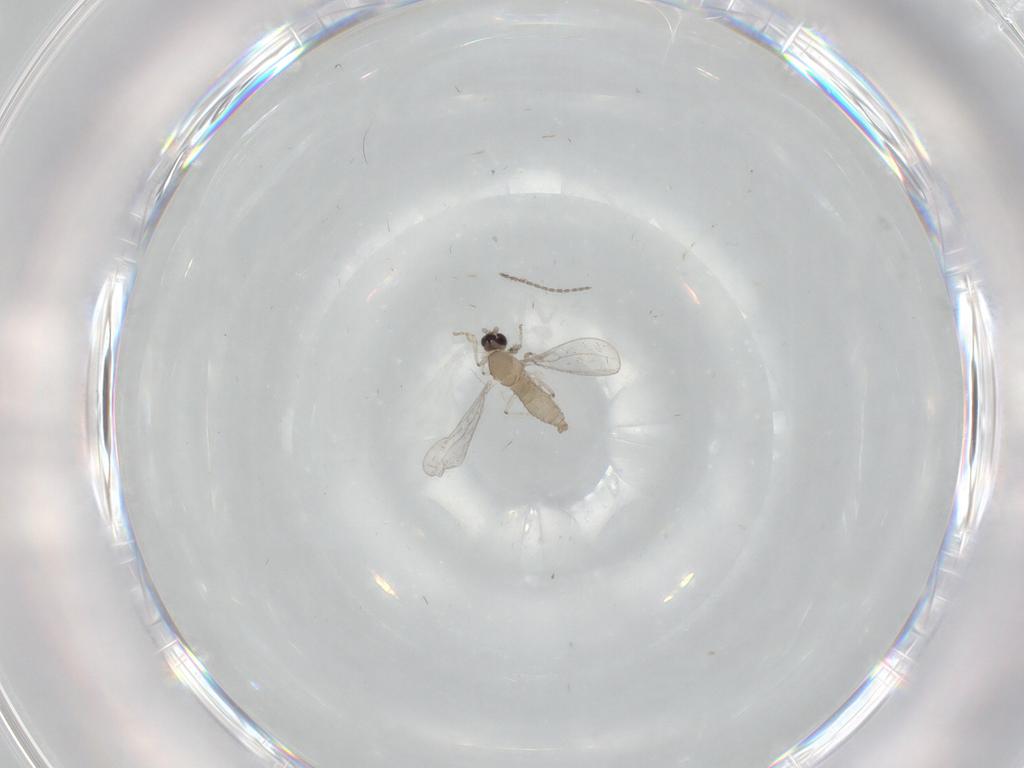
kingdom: Animalia
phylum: Arthropoda
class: Insecta
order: Diptera
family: Cecidomyiidae
